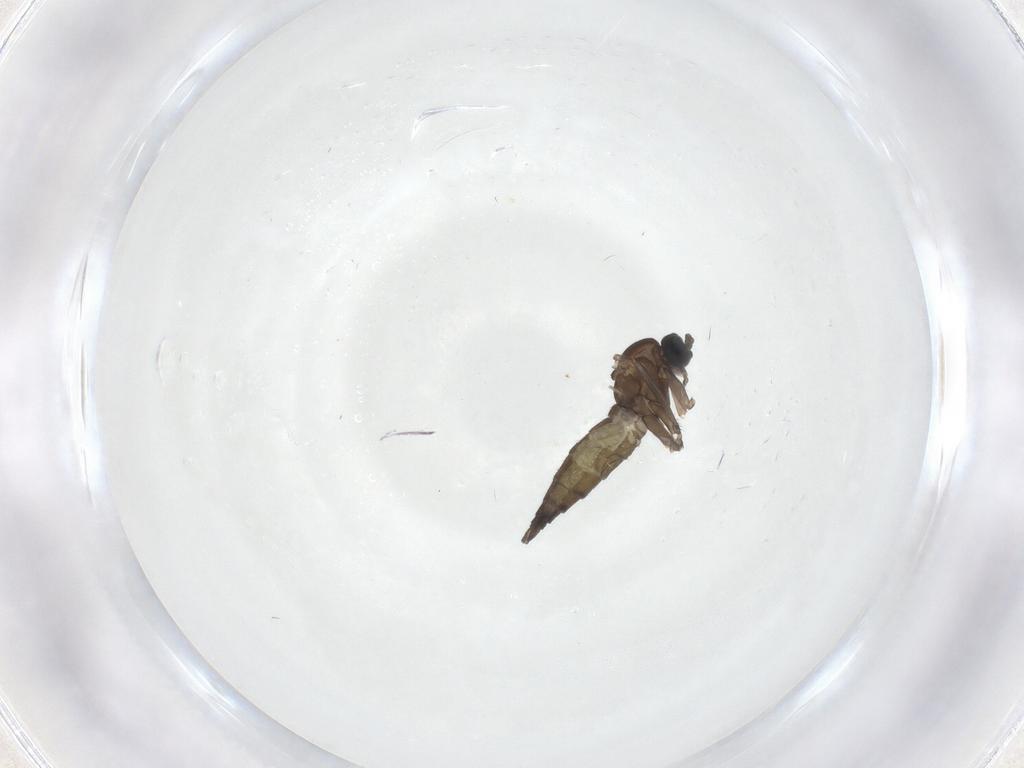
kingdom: Animalia
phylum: Arthropoda
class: Insecta
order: Diptera
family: Sciaridae
